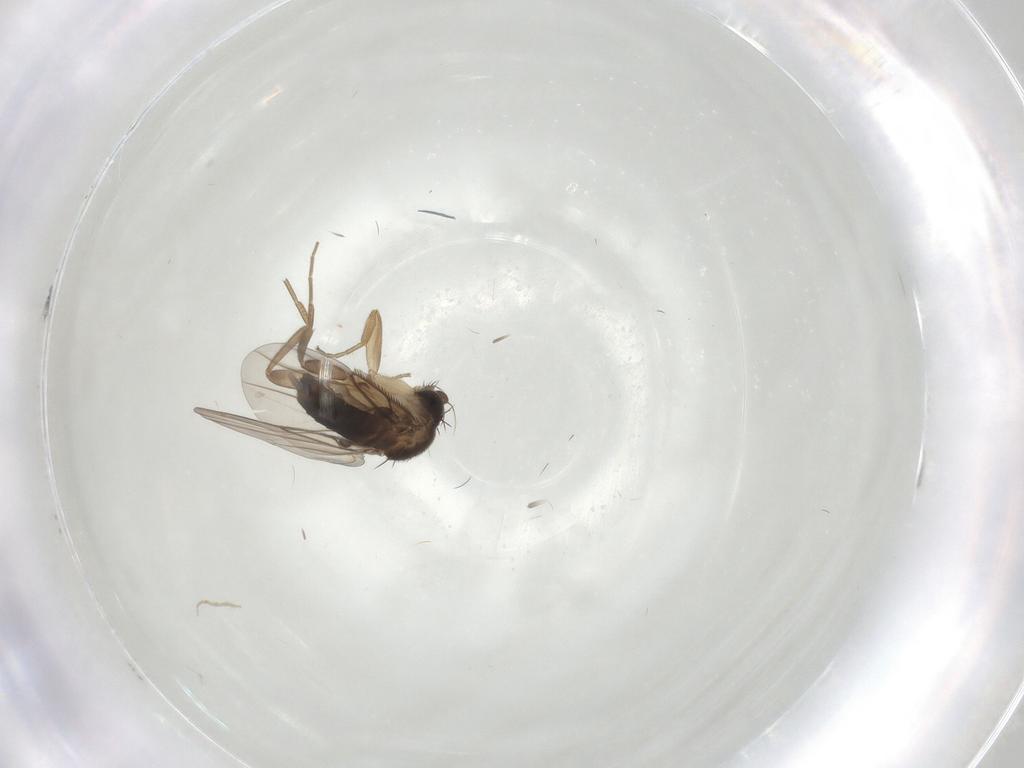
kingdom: Animalia
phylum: Arthropoda
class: Insecta
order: Diptera
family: Phoridae
